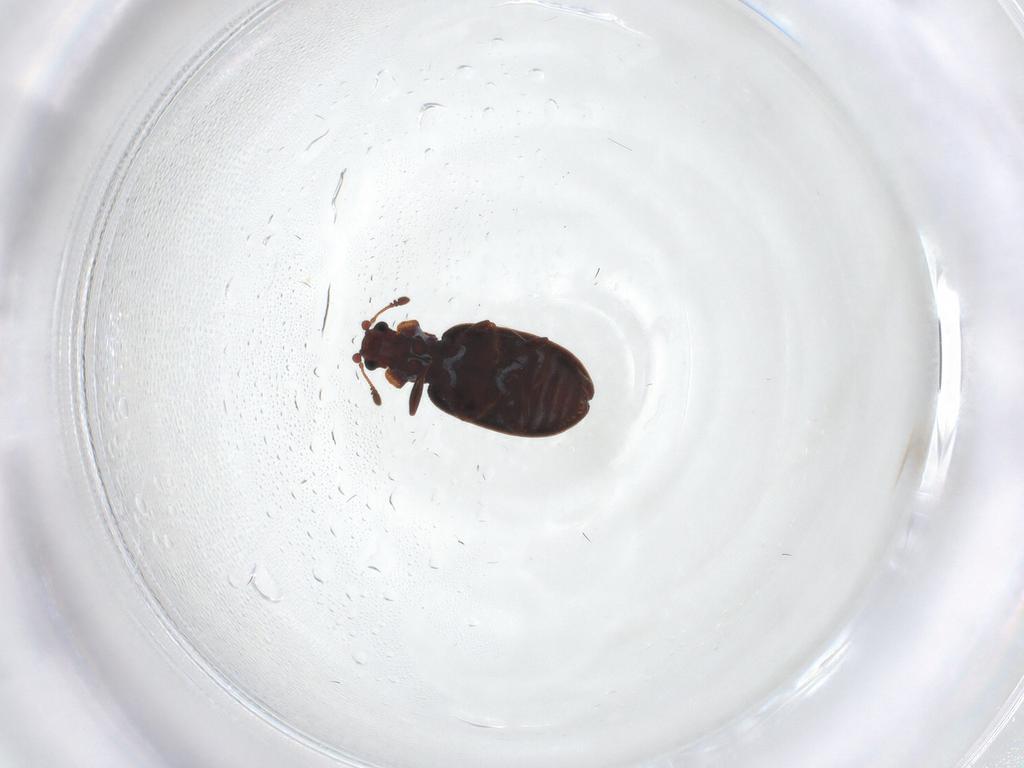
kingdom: Animalia
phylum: Arthropoda
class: Insecta
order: Coleoptera
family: Latridiidae
